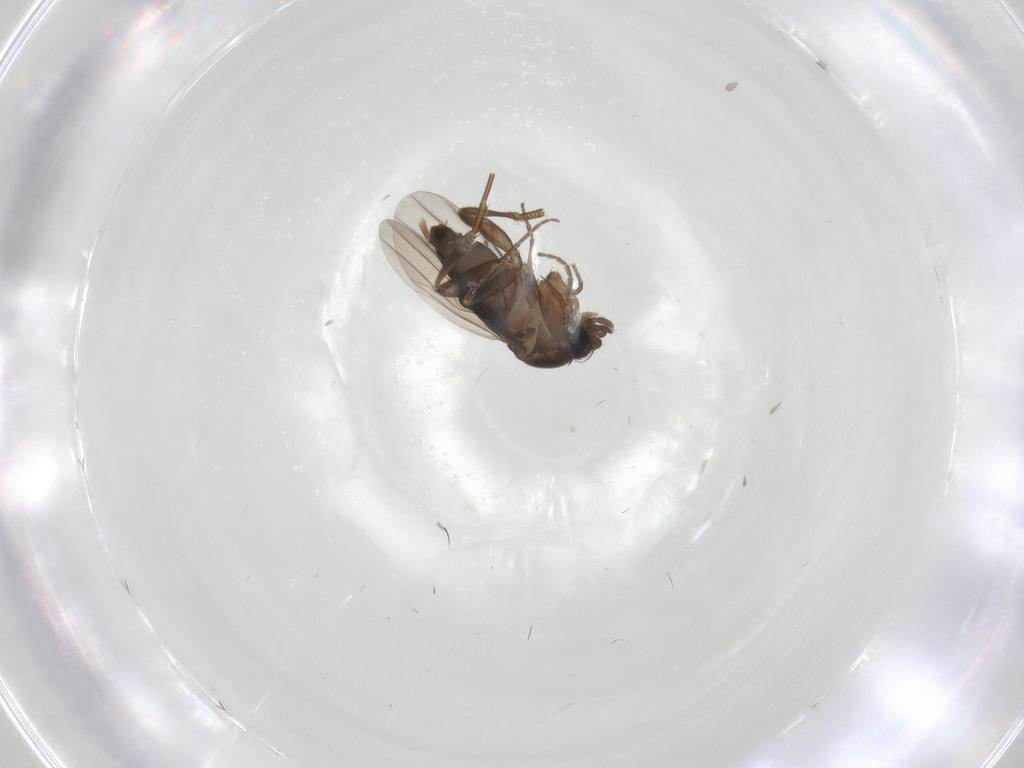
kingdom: Animalia
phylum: Arthropoda
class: Insecta
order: Diptera
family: Phoridae
